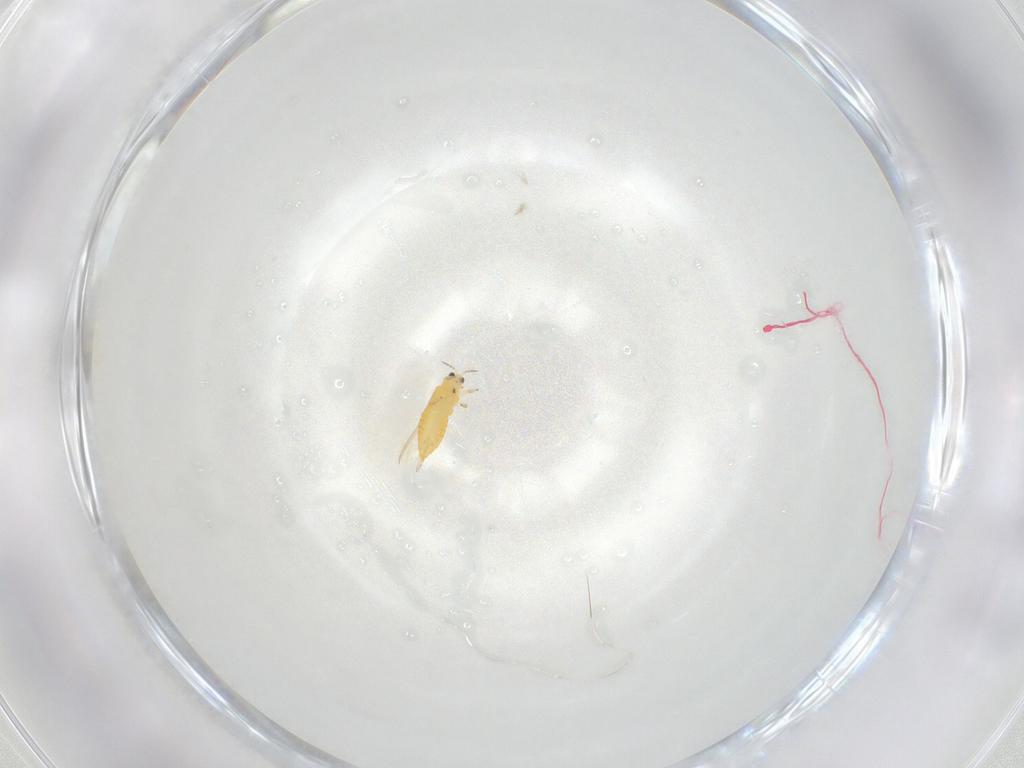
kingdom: Animalia
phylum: Arthropoda
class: Insecta
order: Thysanoptera
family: Thripidae
